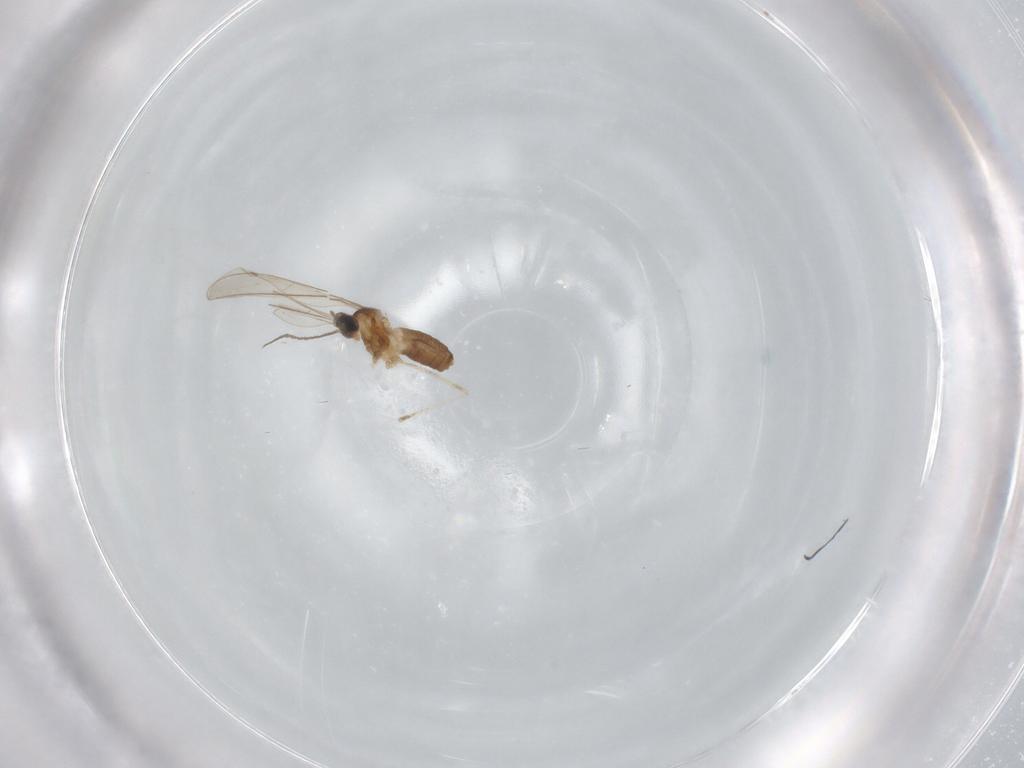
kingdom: Animalia
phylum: Arthropoda
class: Insecta
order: Diptera
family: Cecidomyiidae
